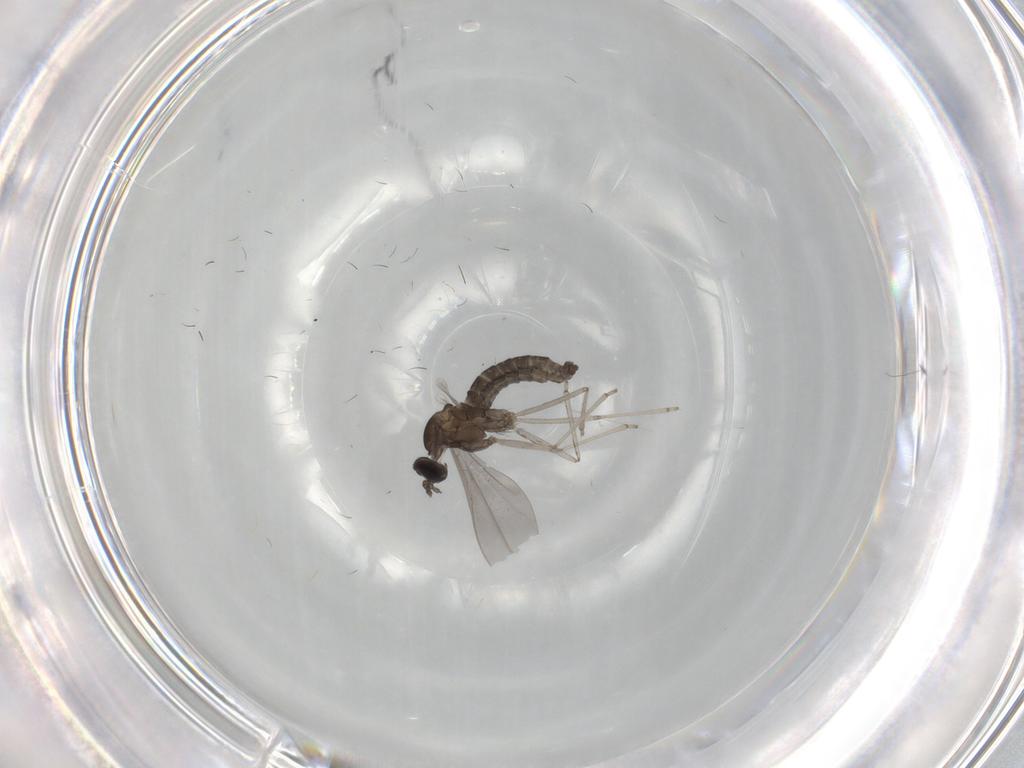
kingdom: Animalia
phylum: Arthropoda
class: Insecta
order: Diptera
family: Cecidomyiidae
